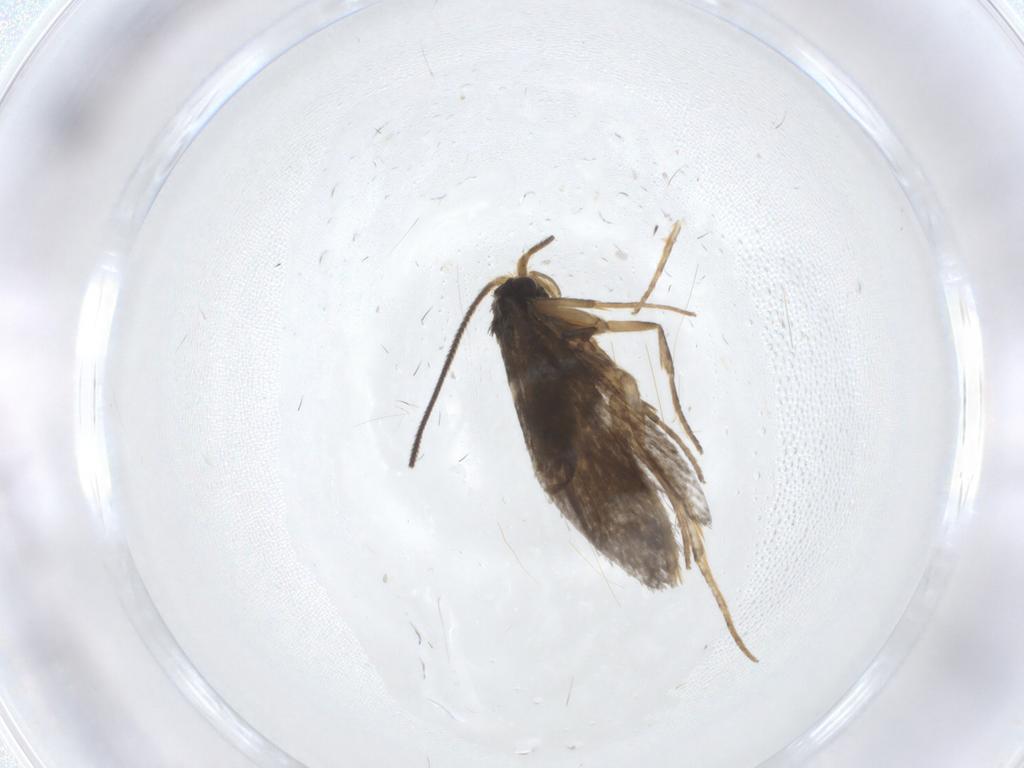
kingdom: Animalia
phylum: Arthropoda
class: Insecta
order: Lepidoptera
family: Gracillariidae
